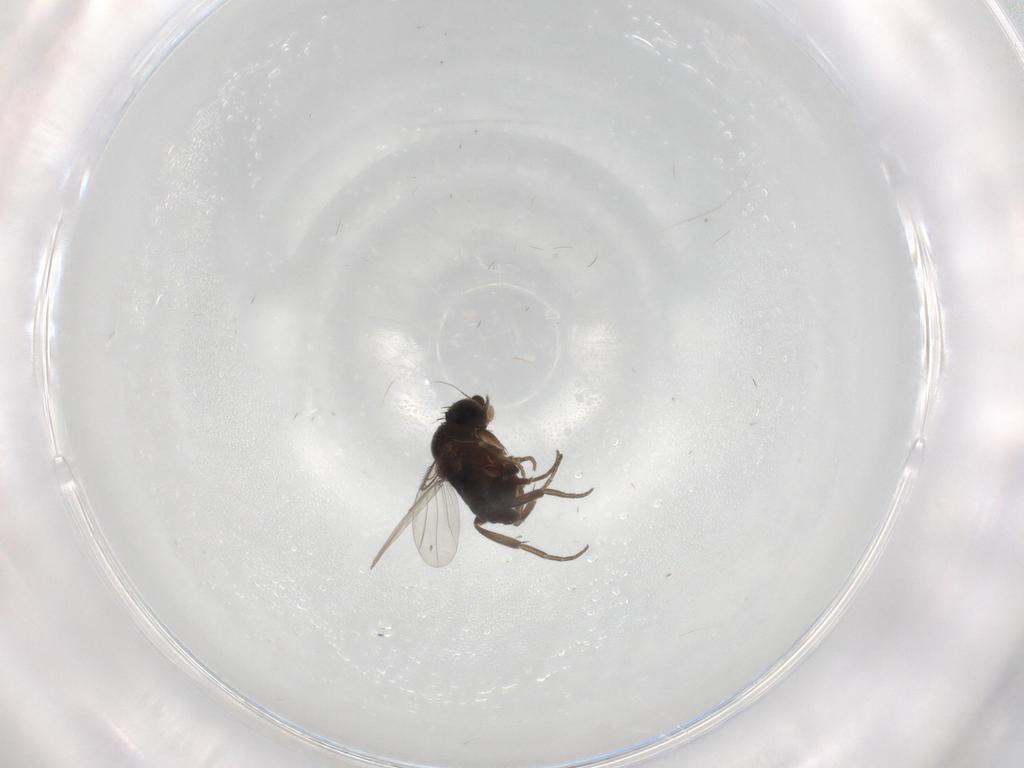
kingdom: Animalia
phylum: Arthropoda
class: Insecta
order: Diptera
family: Phoridae
